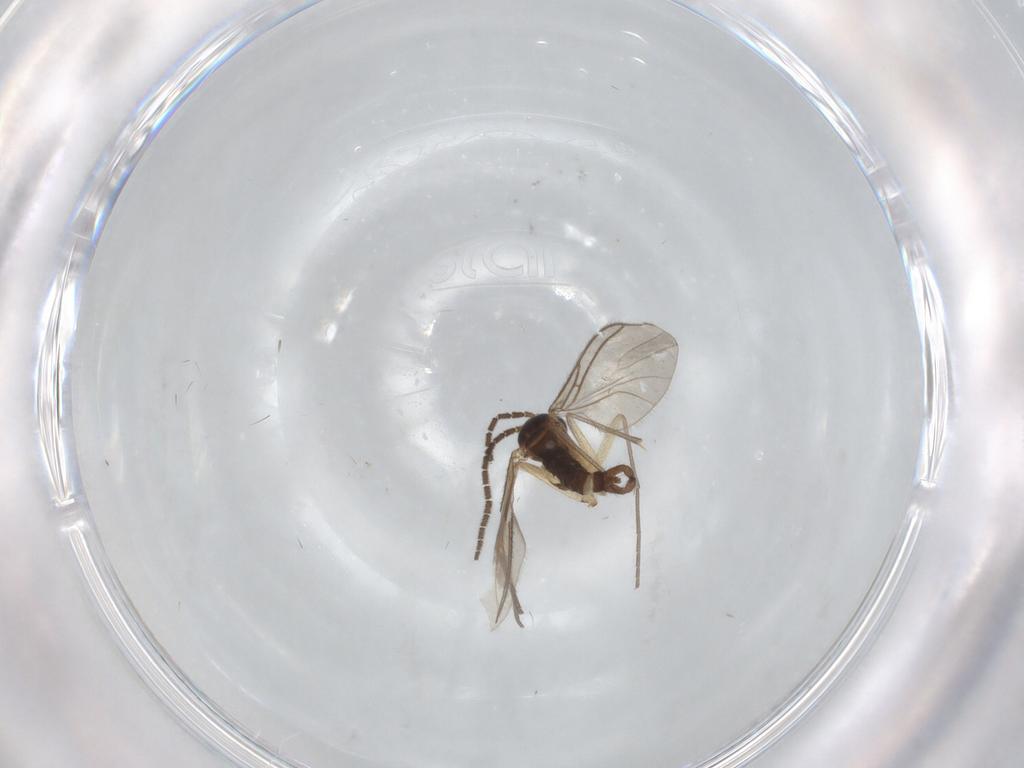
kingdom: Animalia
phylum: Arthropoda
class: Insecta
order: Diptera
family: Sciaridae
